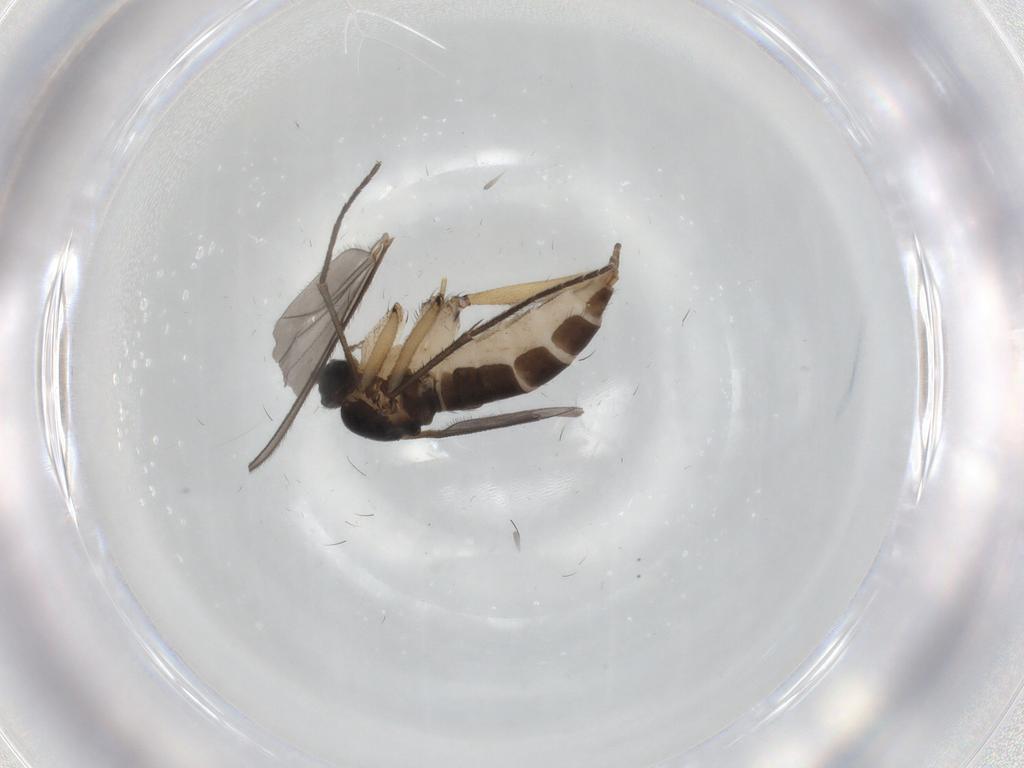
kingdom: Animalia
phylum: Arthropoda
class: Insecta
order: Diptera
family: Sciaridae
